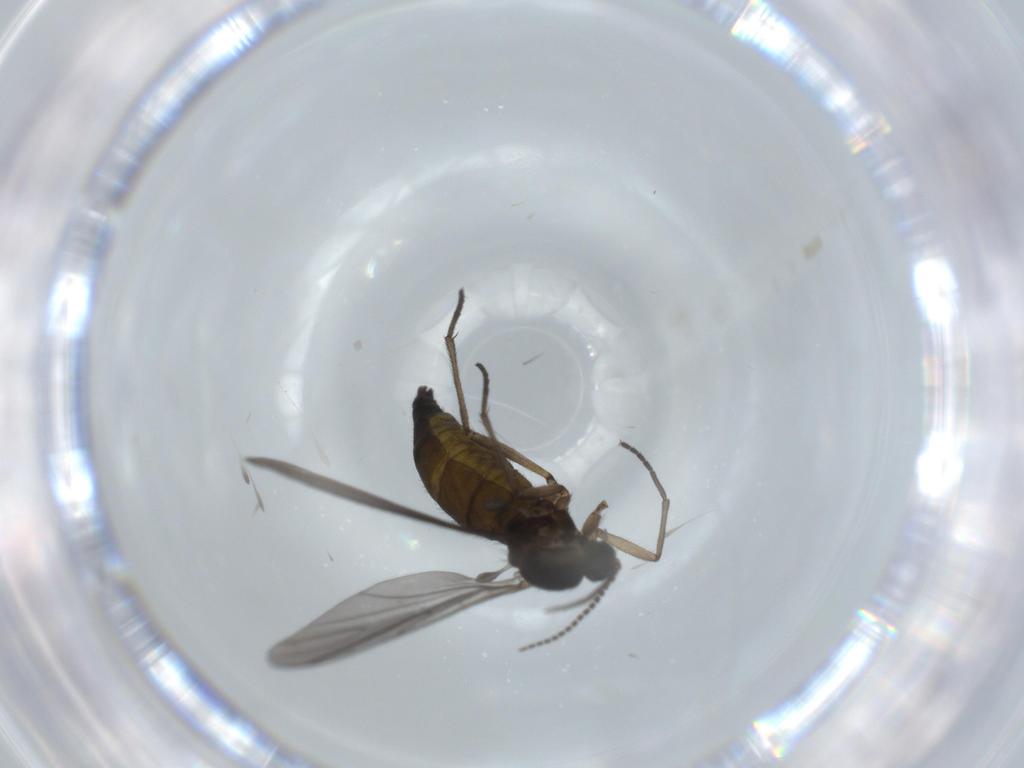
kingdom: Animalia
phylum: Arthropoda
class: Insecta
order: Diptera
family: Sciaridae
